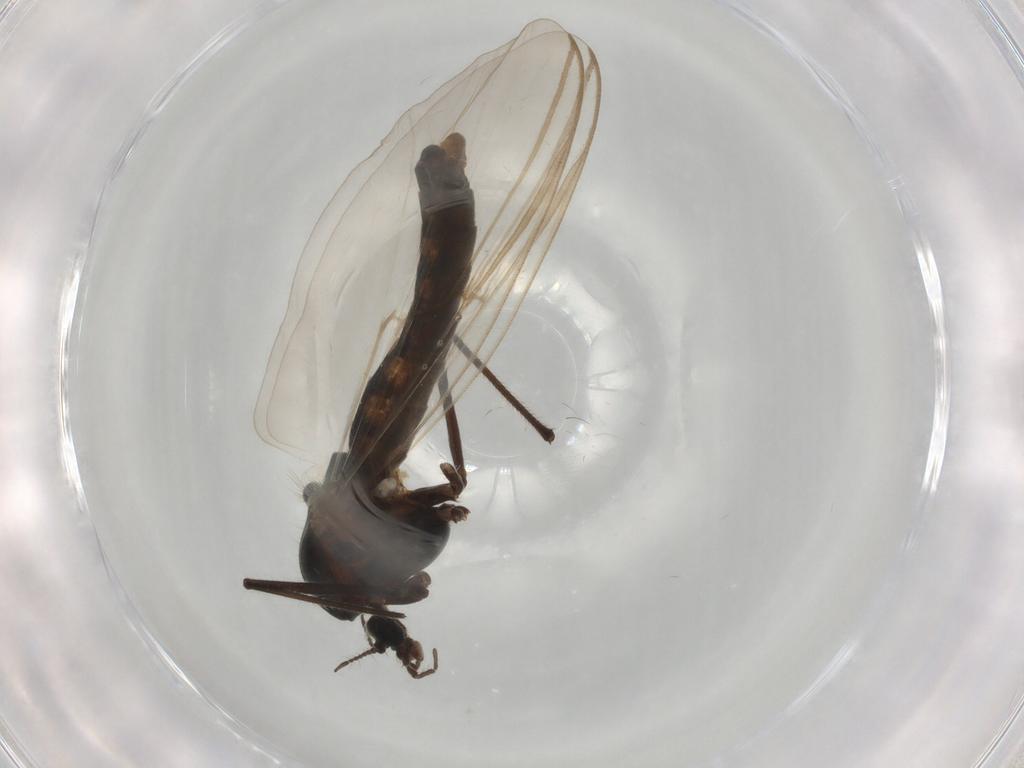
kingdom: Animalia
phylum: Arthropoda
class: Insecta
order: Diptera
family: Chironomidae
